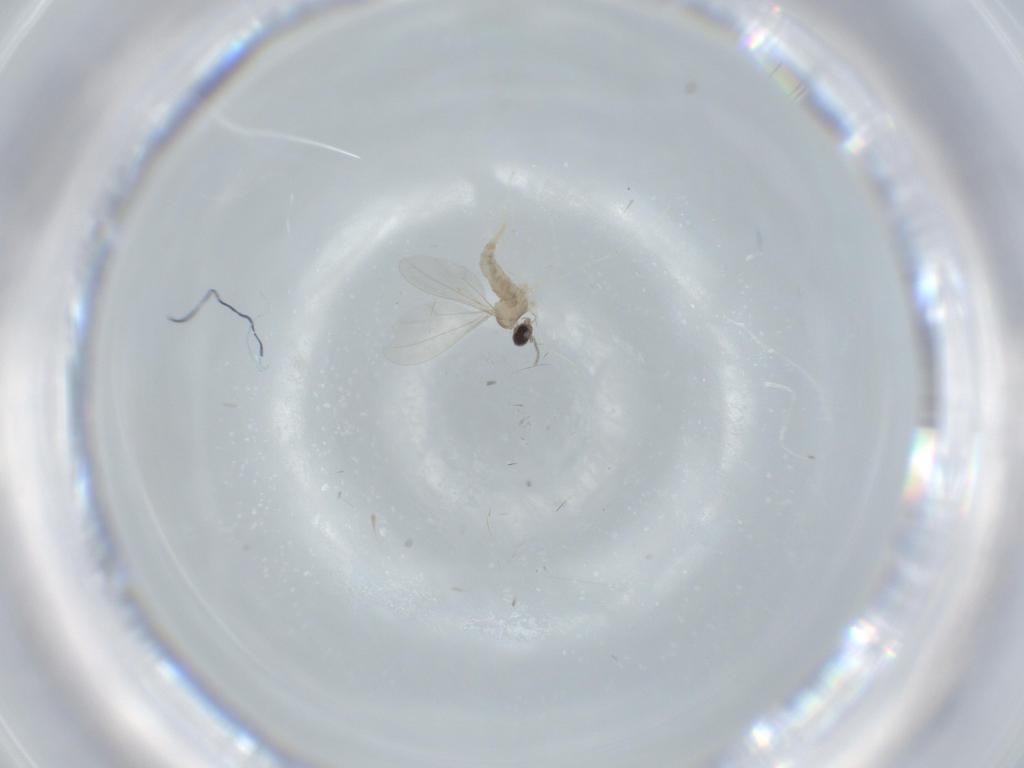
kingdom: Animalia
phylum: Arthropoda
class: Insecta
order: Diptera
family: Cecidomyiidae
